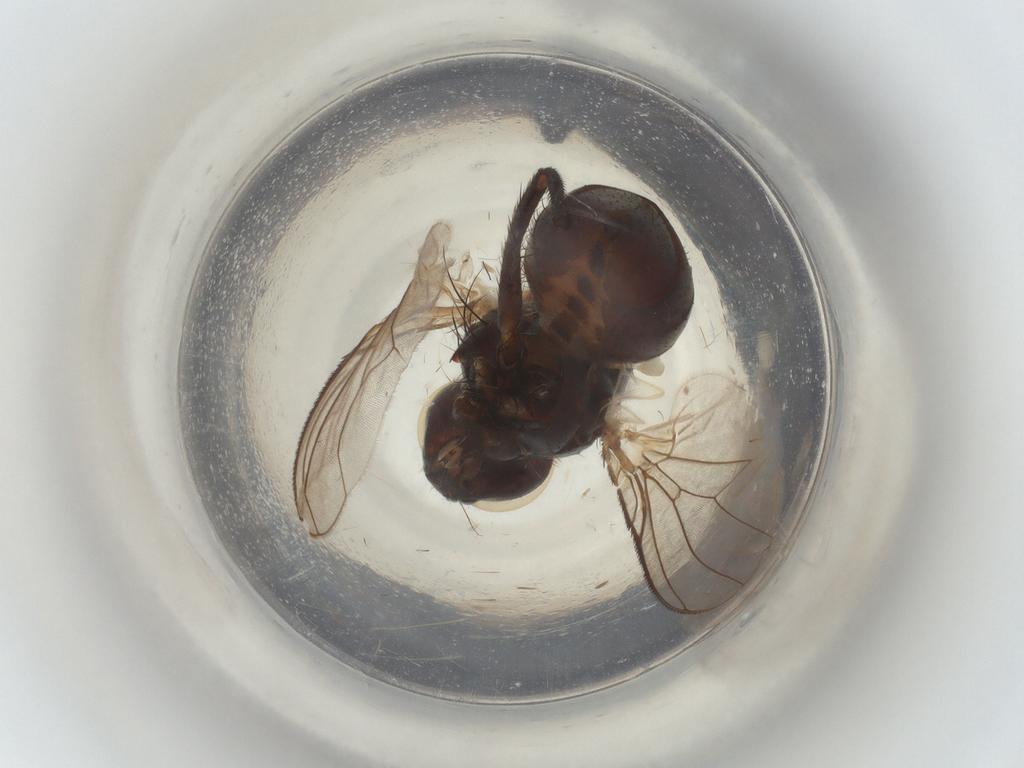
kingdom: Animalia
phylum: Arthropoda
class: Insecta
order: Diptera
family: Muscidae
